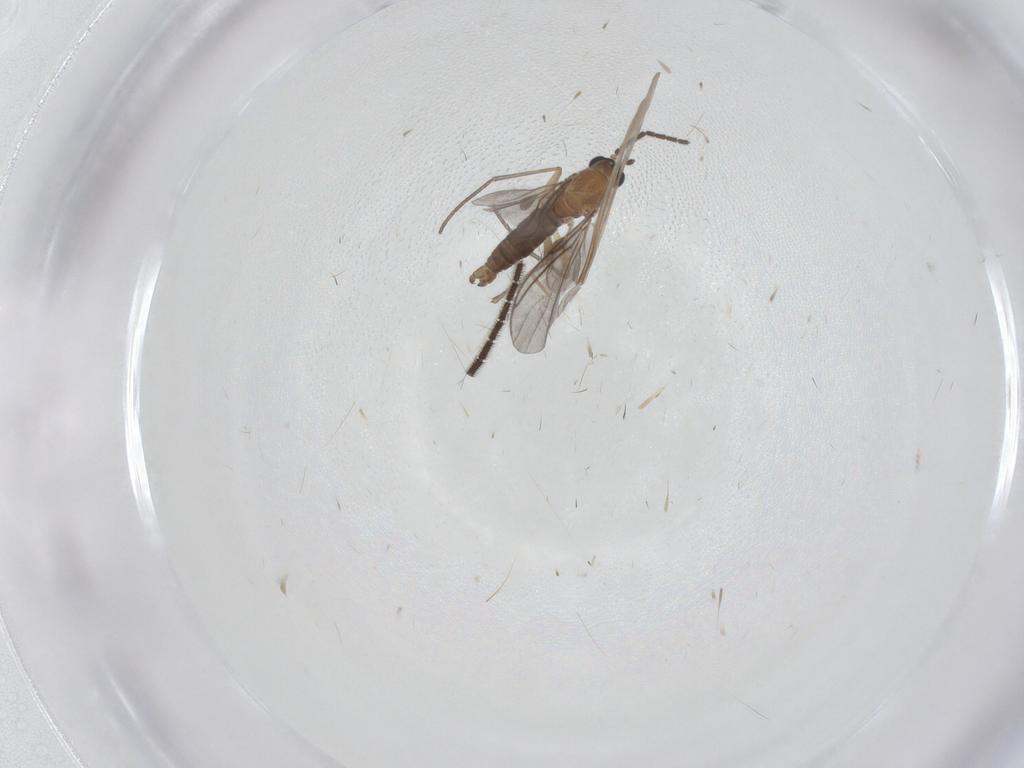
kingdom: Animalia
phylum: Arthropoda
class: Insecta
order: Diptera
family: Sciaridae
